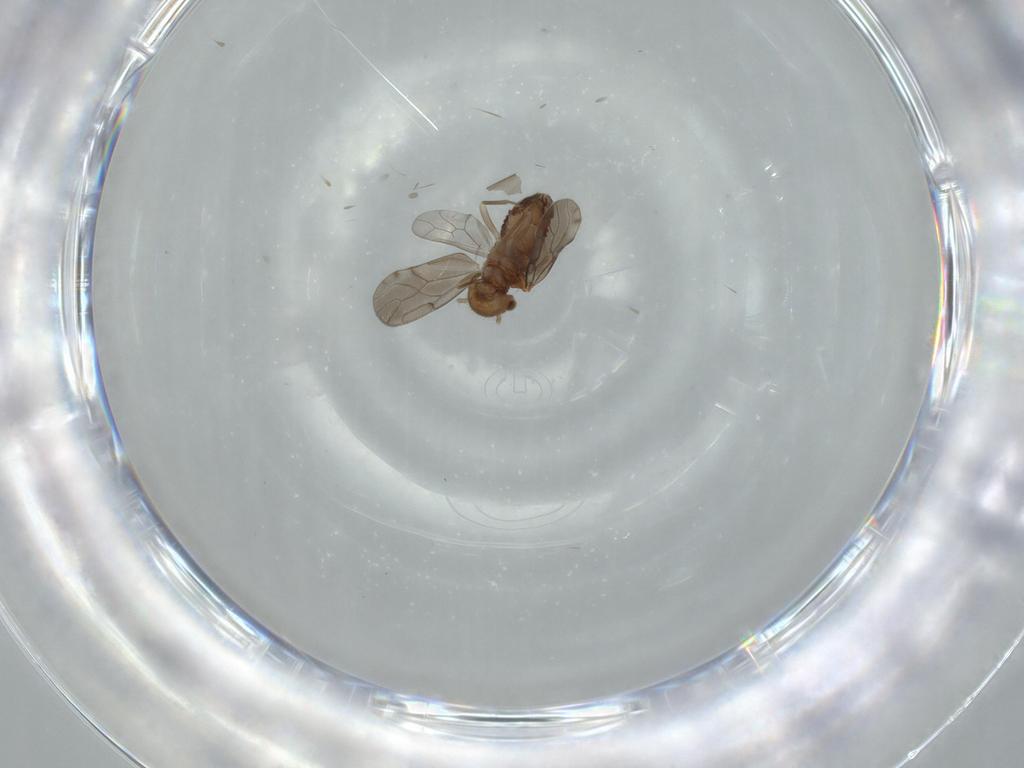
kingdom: Animalia
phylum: Arthropoda
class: Insecta
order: Psocodea
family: Ectopsocidae
